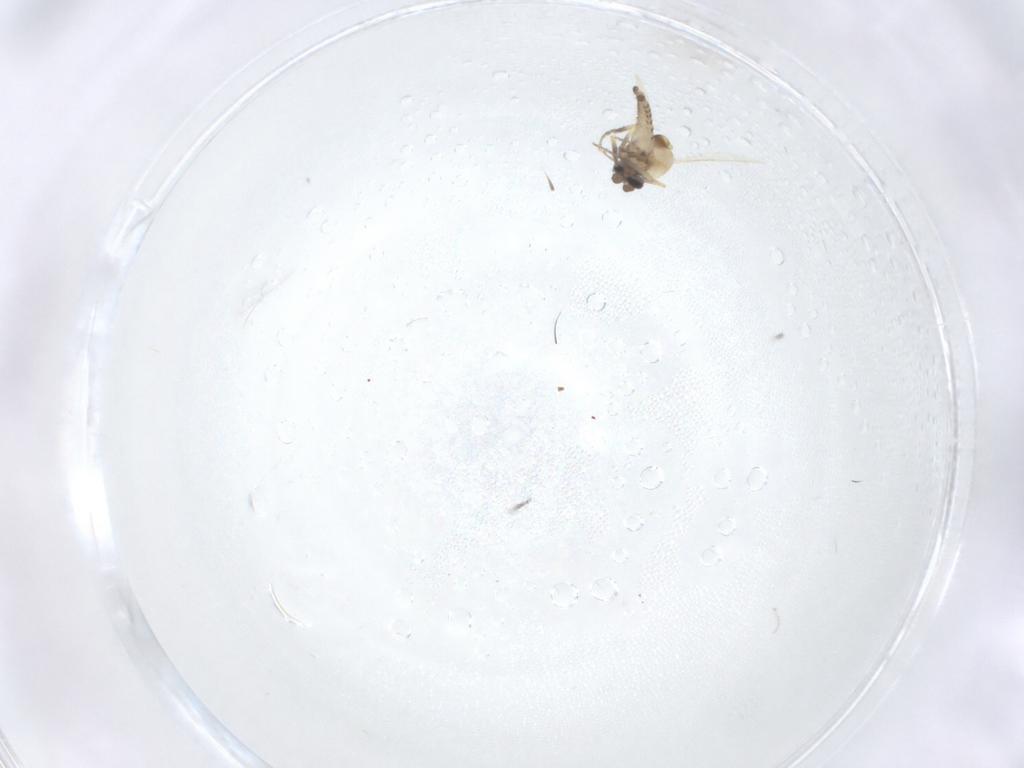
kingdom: Animalia
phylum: Arthropoda
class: Insecta
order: Diptera
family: Ceratopogonidae
